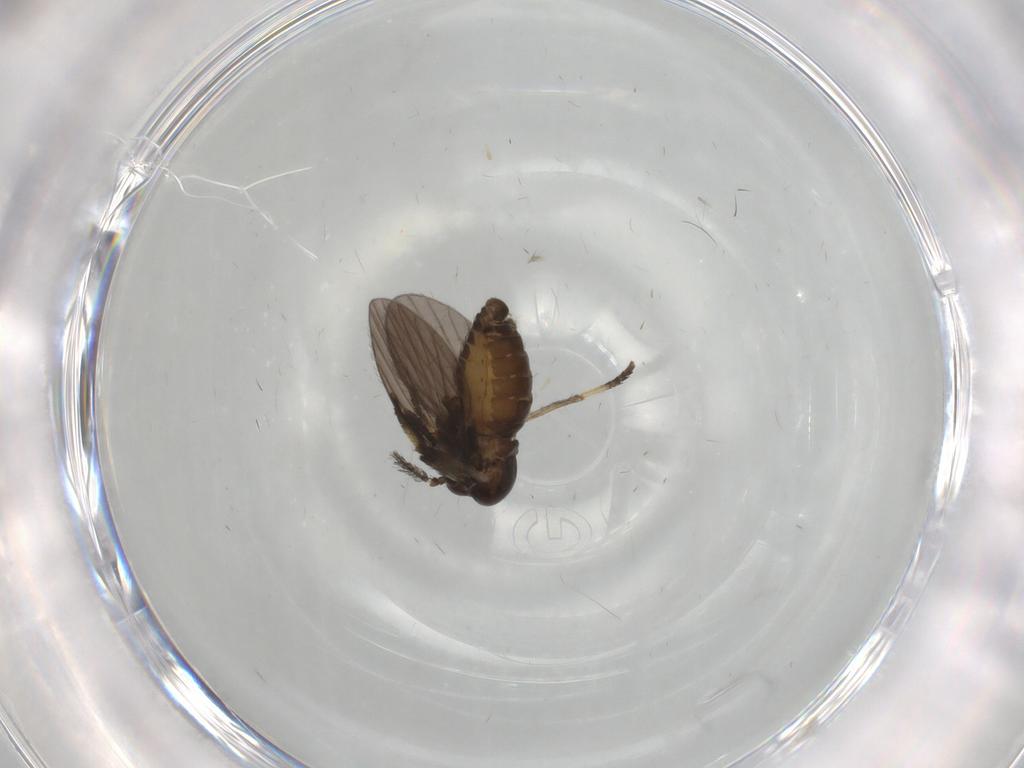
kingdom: Animalia
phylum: Arthropoda
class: Insecta
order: Diptera
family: Psychodidae
